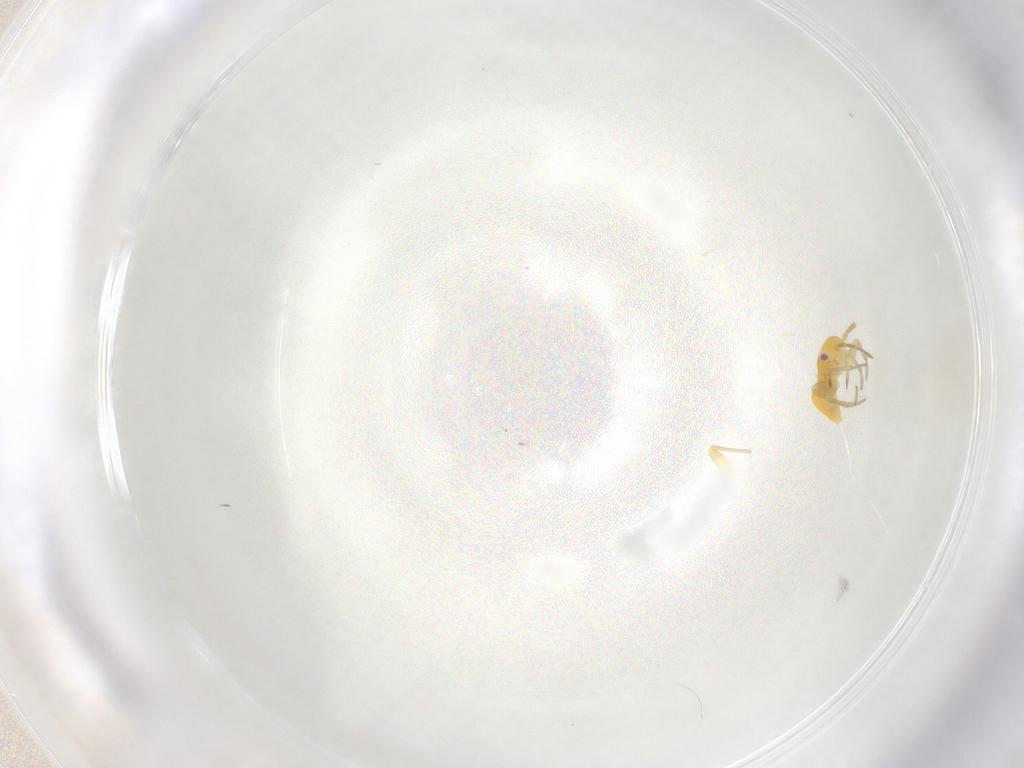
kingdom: Animalia
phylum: Arthropoda
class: Insecta
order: Hemiptera
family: Miridae
